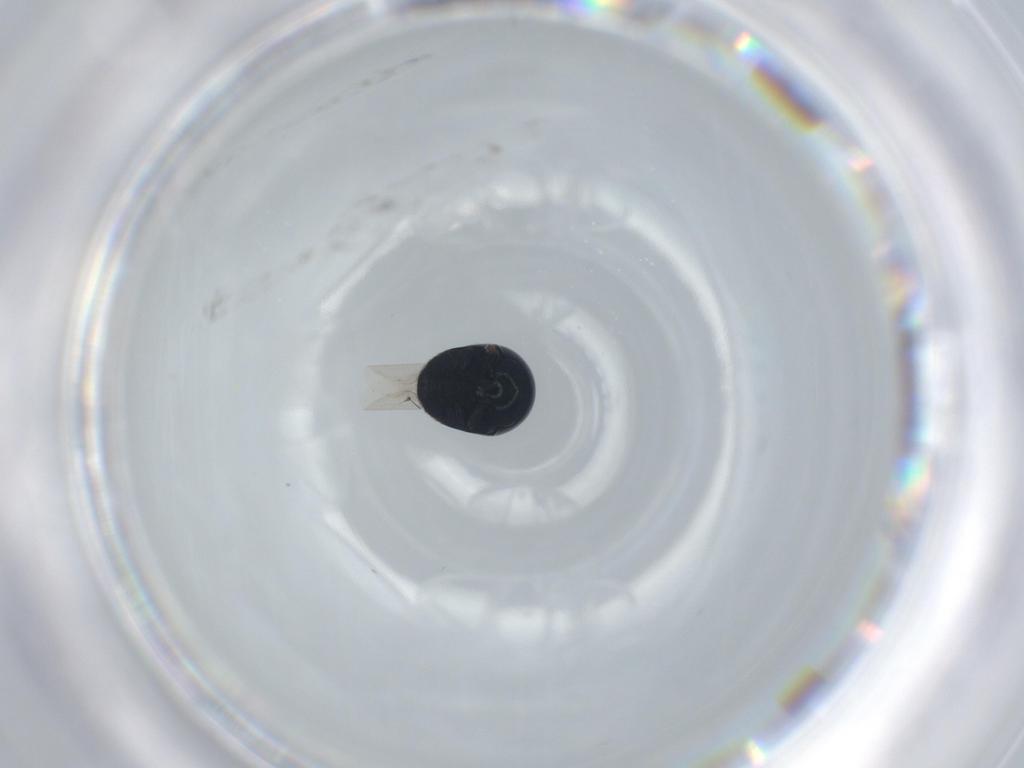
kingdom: Animalia
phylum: Arthropoda
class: Insecta
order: Coleoptera
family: Cybocephalidae
